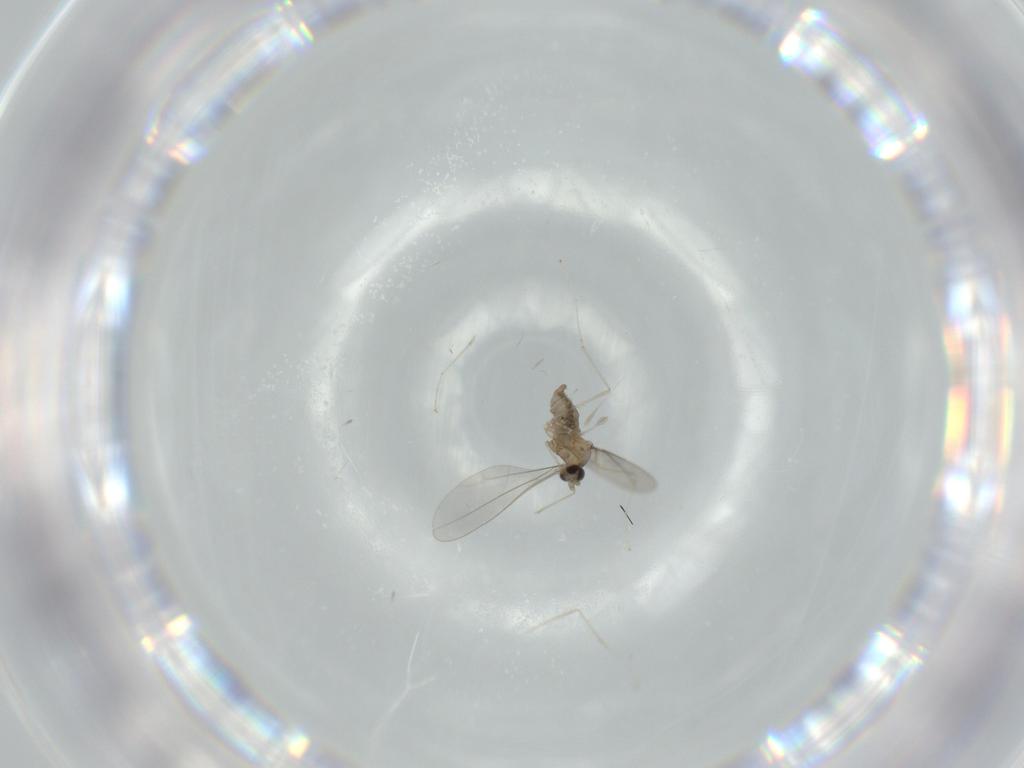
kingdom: Animalia
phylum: Arthropoda
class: Insecta
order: Diptera
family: Cecidomyiidae
